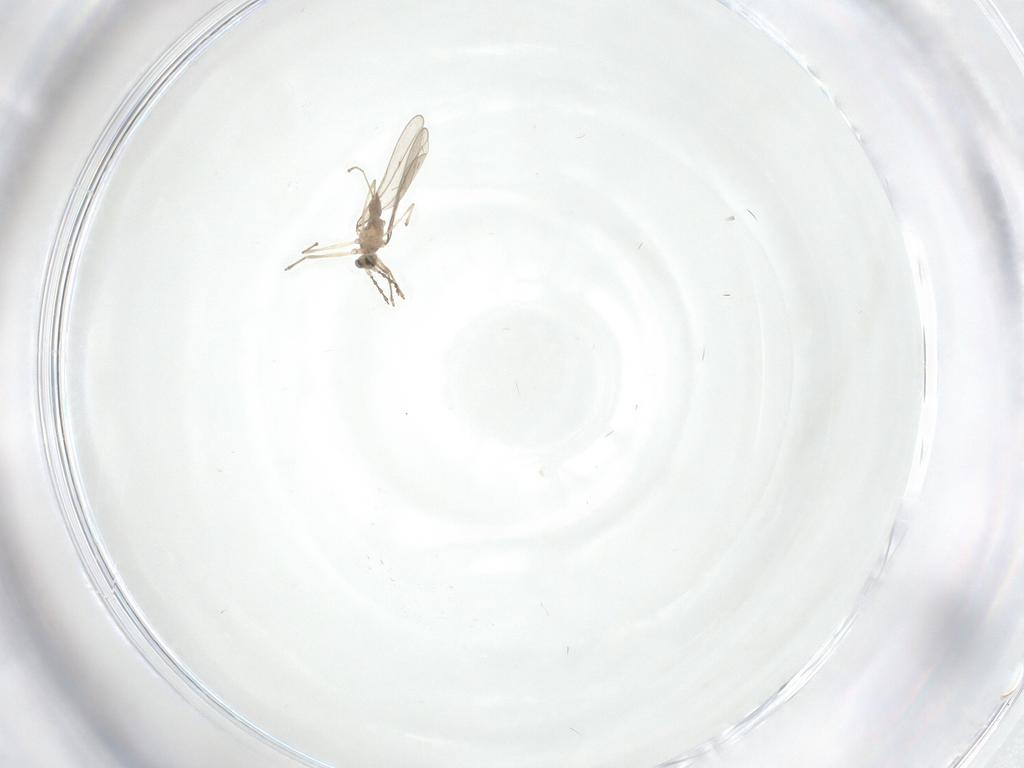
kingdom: Animalia
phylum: Arthropoda
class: Insecta
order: Diptera
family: Cecidomyiidae
